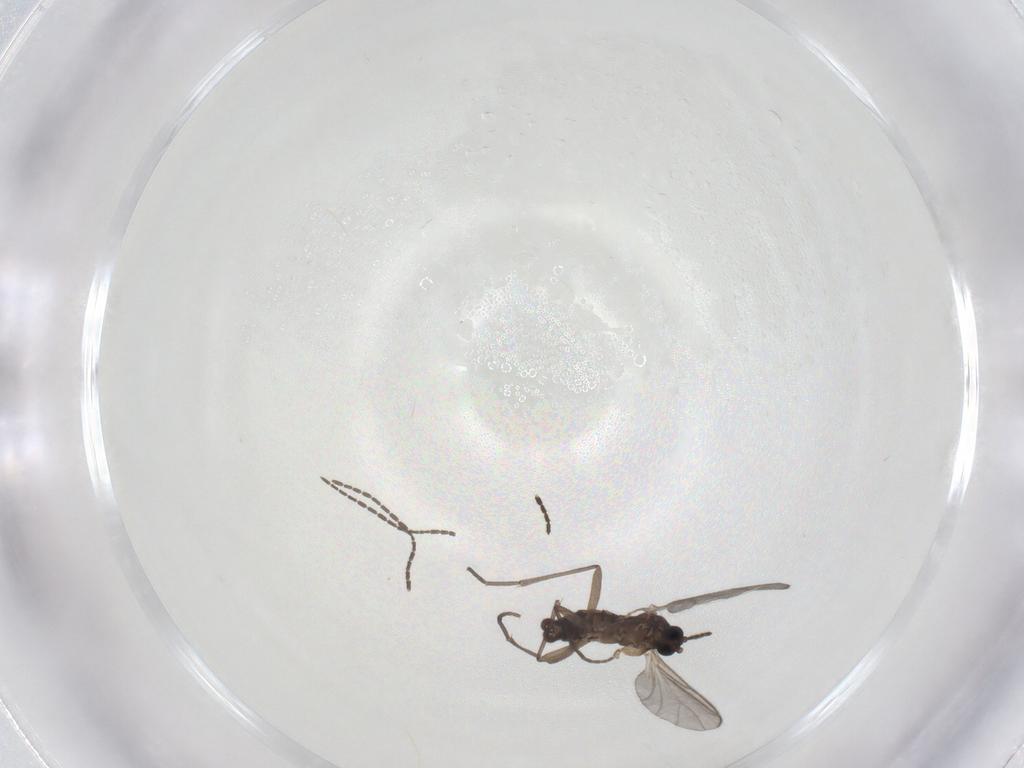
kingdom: Animalia
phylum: Arthropoda
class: Insecta
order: Diptera
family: Sciaridae
